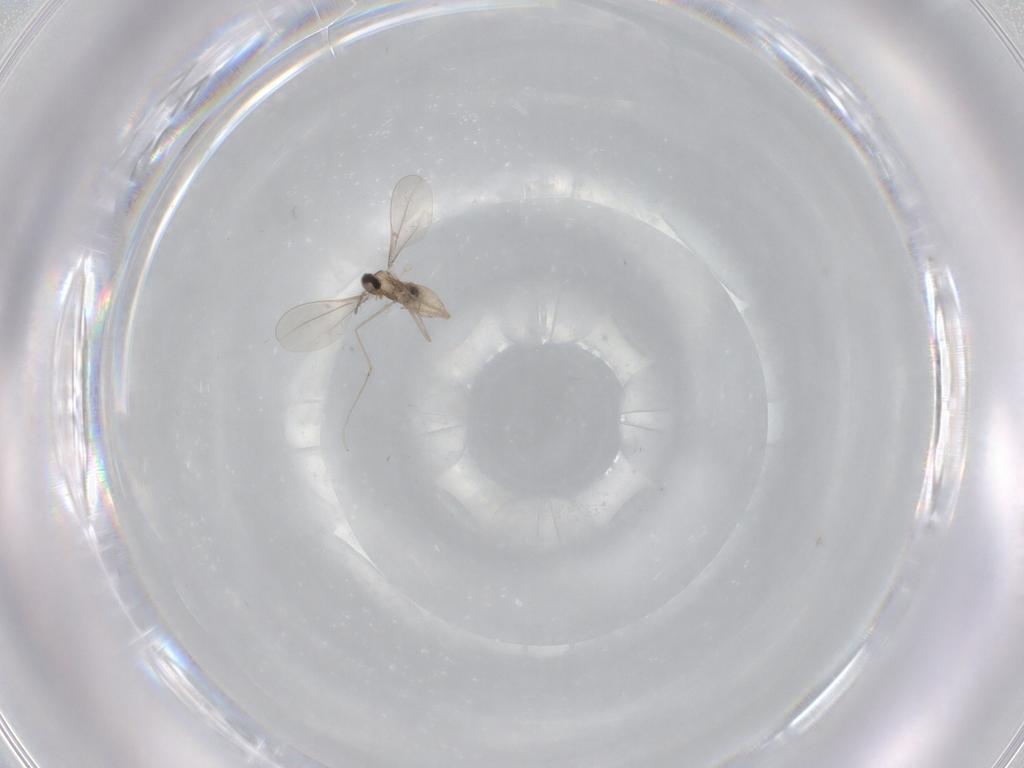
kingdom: Animalia
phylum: Arthropoda
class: Insecta
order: Diptera
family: Cecidomyiidae
